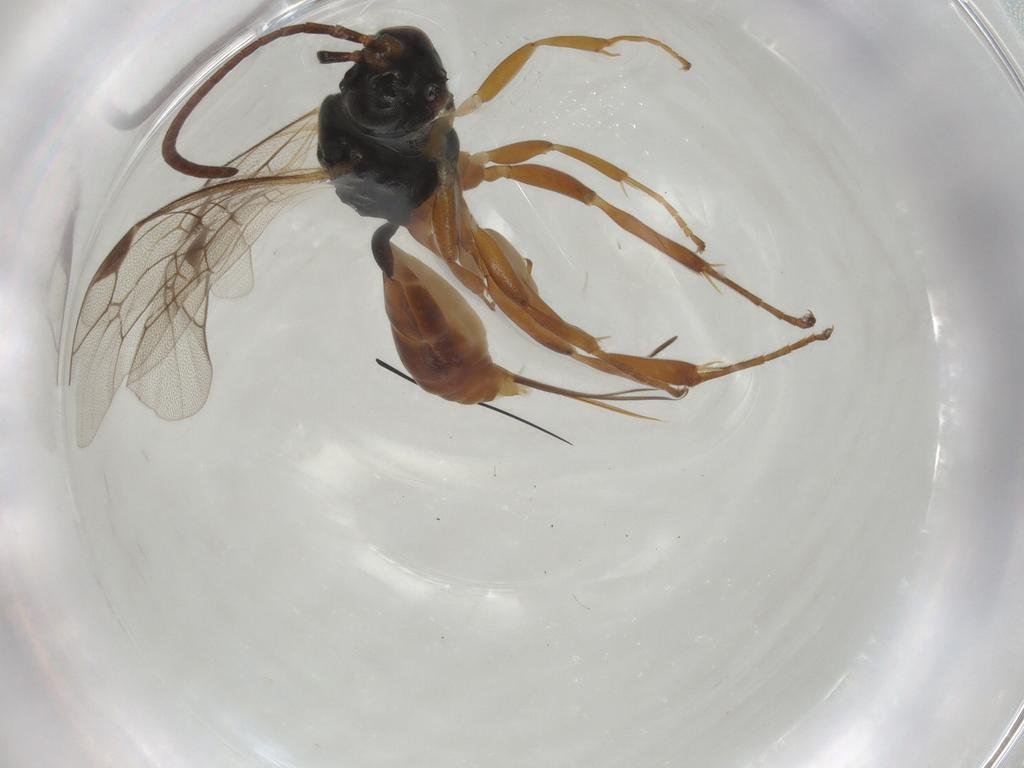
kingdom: Animalia
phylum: Arthropoda
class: Insecta
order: Hymenoptera
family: Ichneumonidae
